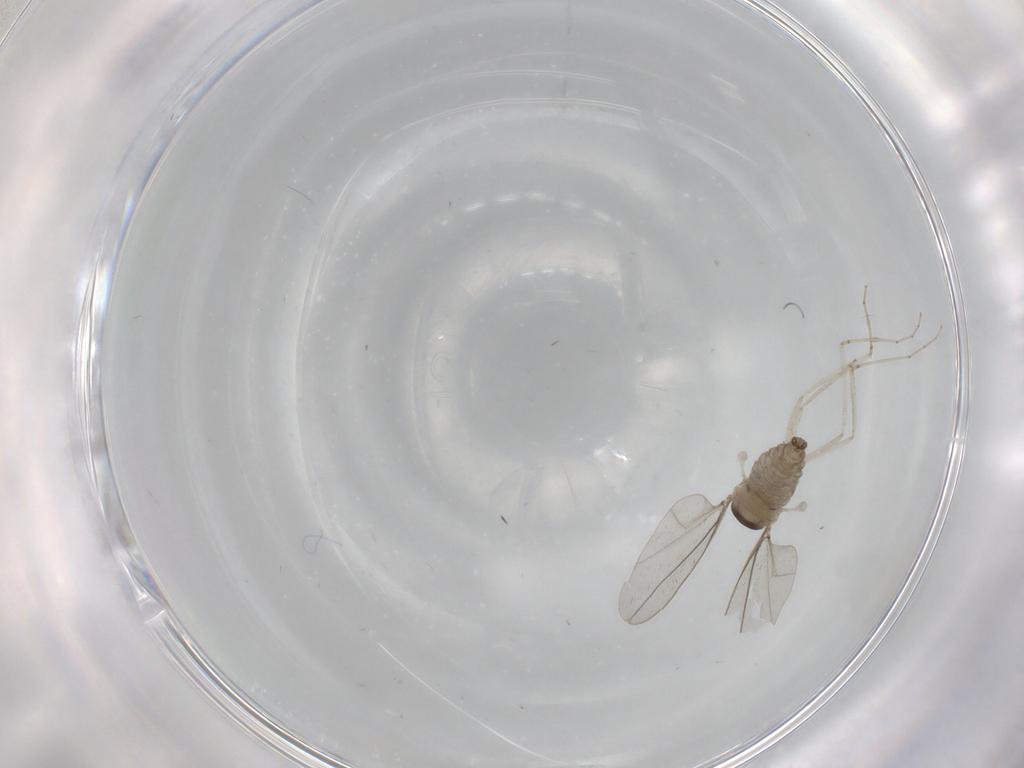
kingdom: Animalia
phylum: Arthropoda
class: Insecta
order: Diptera
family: Cecidomyiidae
